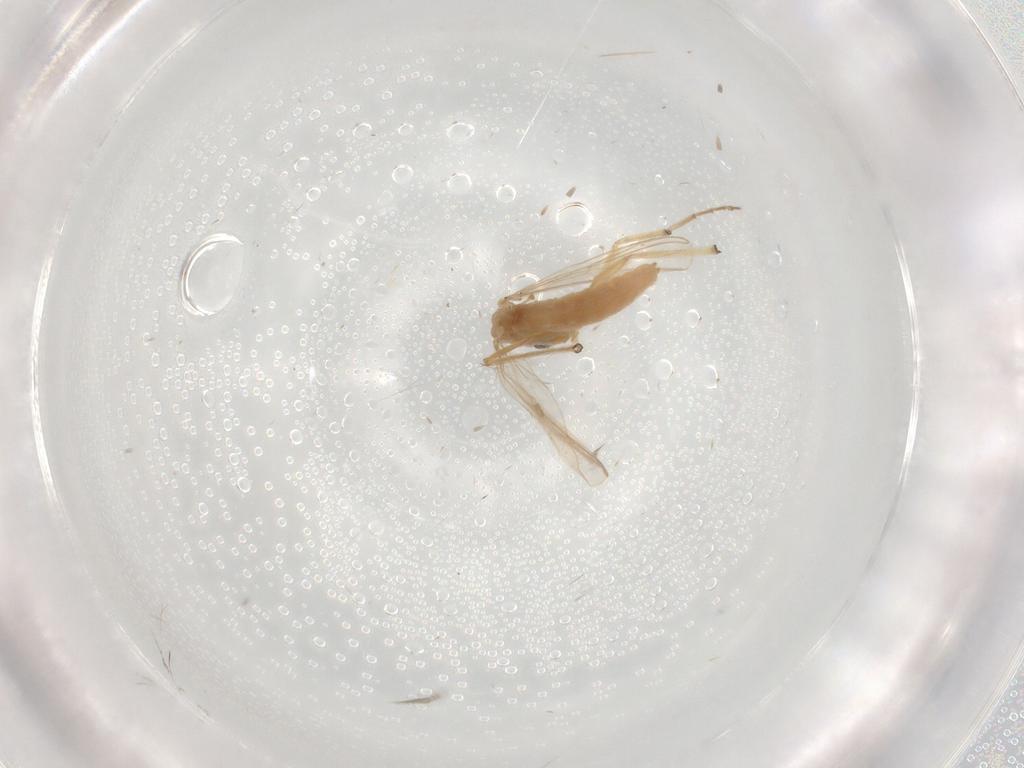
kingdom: Animalia
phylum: Arthropoda
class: Insecta
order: Diptera
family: Chironomidae
